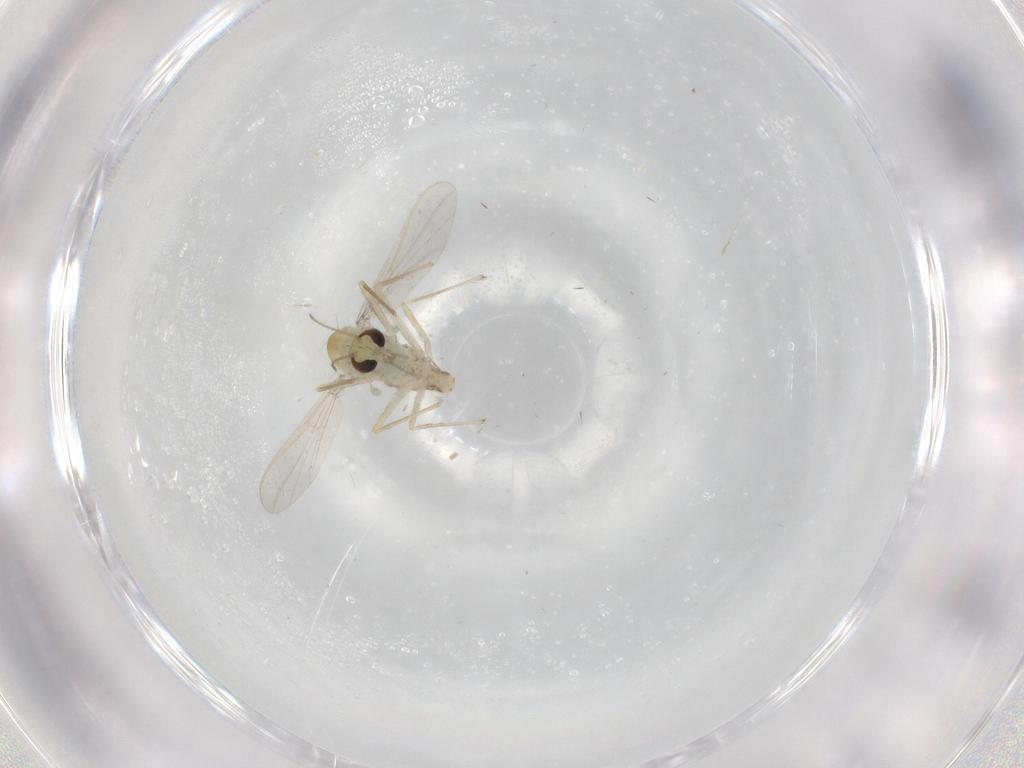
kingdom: Animalia
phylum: Arthropoda
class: Insecta
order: Diptera
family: Chironomidae
